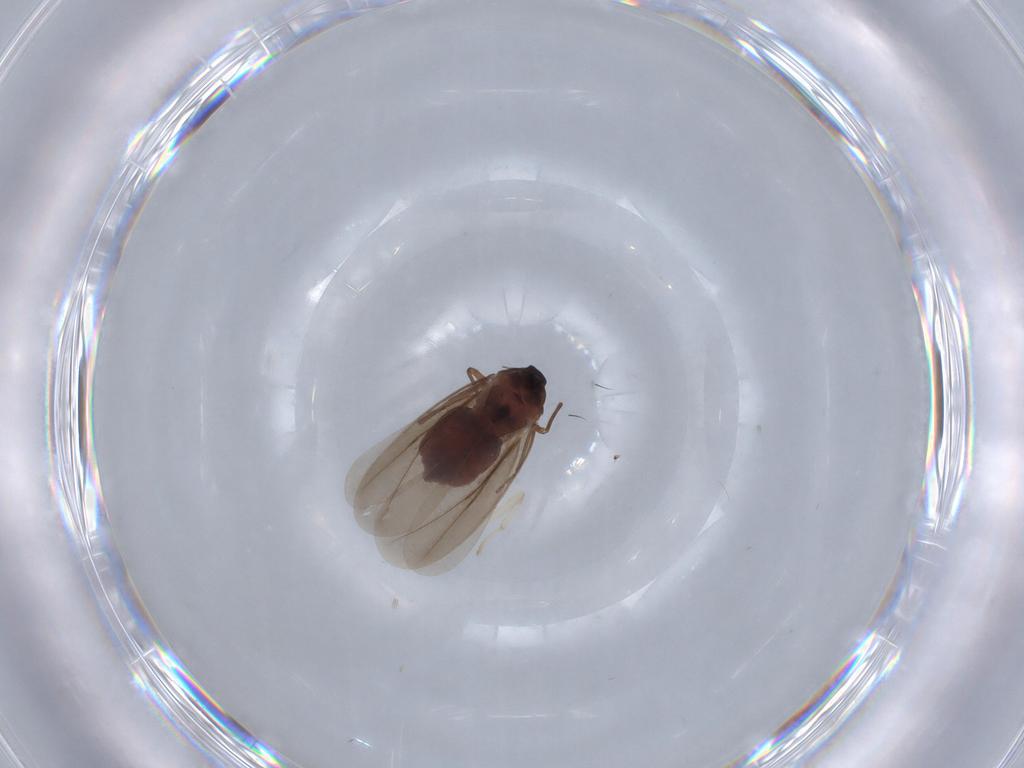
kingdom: Animalia
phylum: Arthropoda
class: Insecta
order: Hemiptera
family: Aleyrodidae
